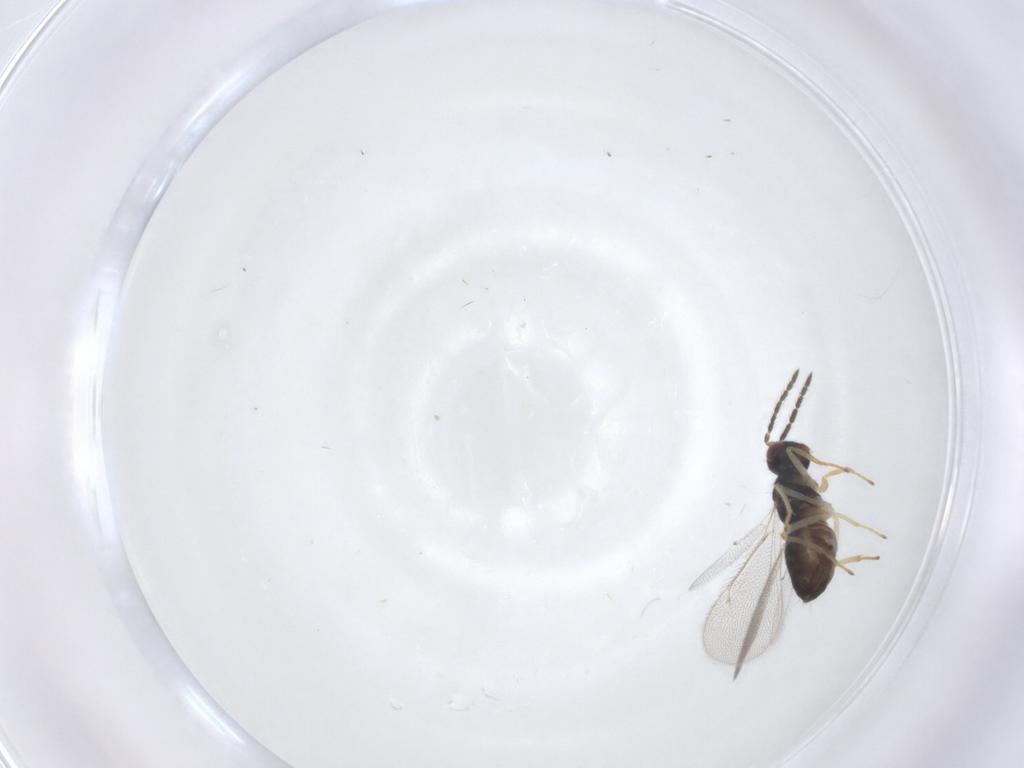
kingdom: Animalia
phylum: Arthropoda
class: Insecta
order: Hymenoptera
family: Eulophidae
